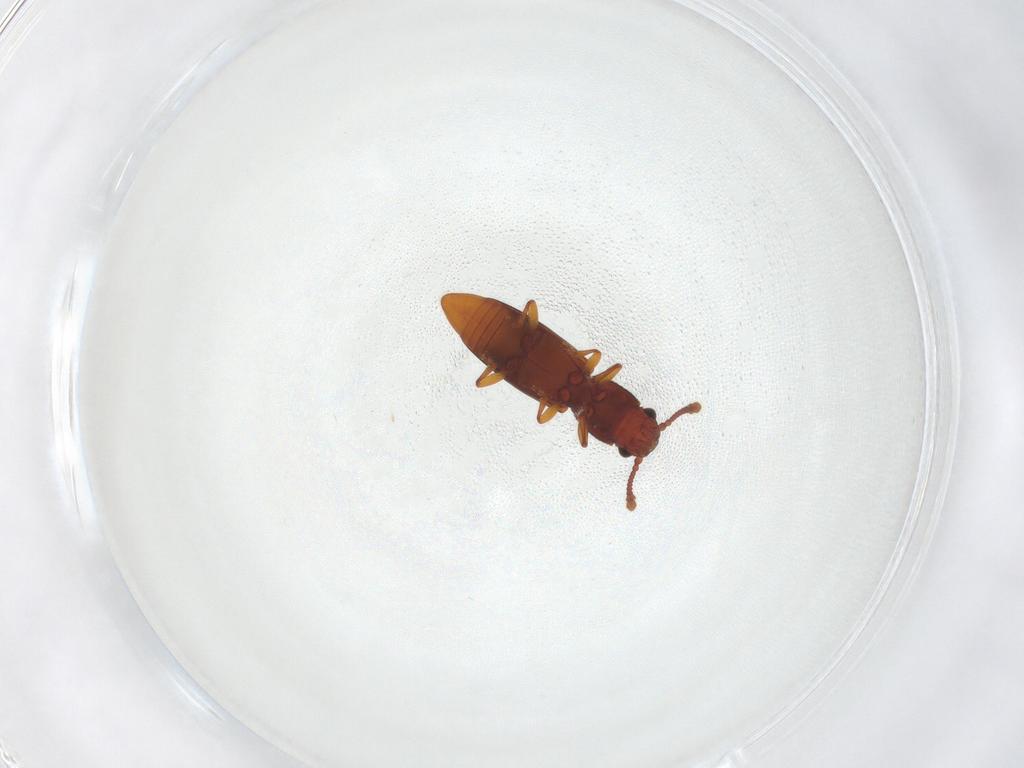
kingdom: Animalia
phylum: Arthropoda
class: Insecta
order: Coleoptera
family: Monotomidae
